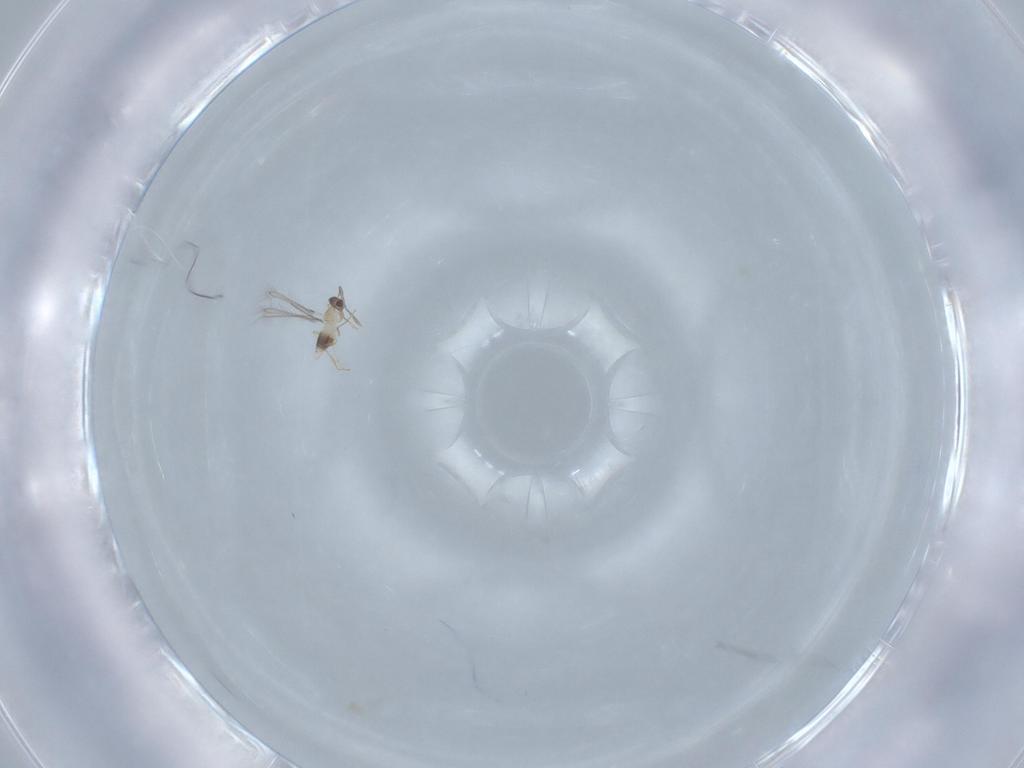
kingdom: Animalia
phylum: Arthropoda
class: Insecta
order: Hymenoptera
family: Mymaridae
